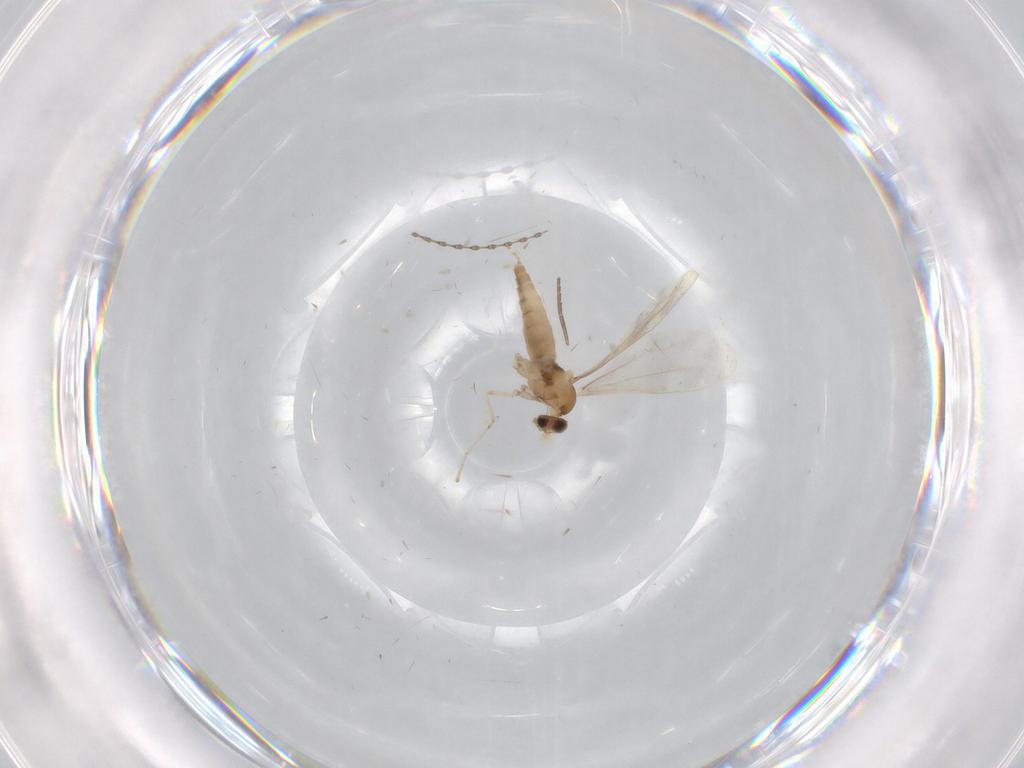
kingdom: Animalia
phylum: Arthropoda
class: Insecta
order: Diptera
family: Cecidomyiidae
